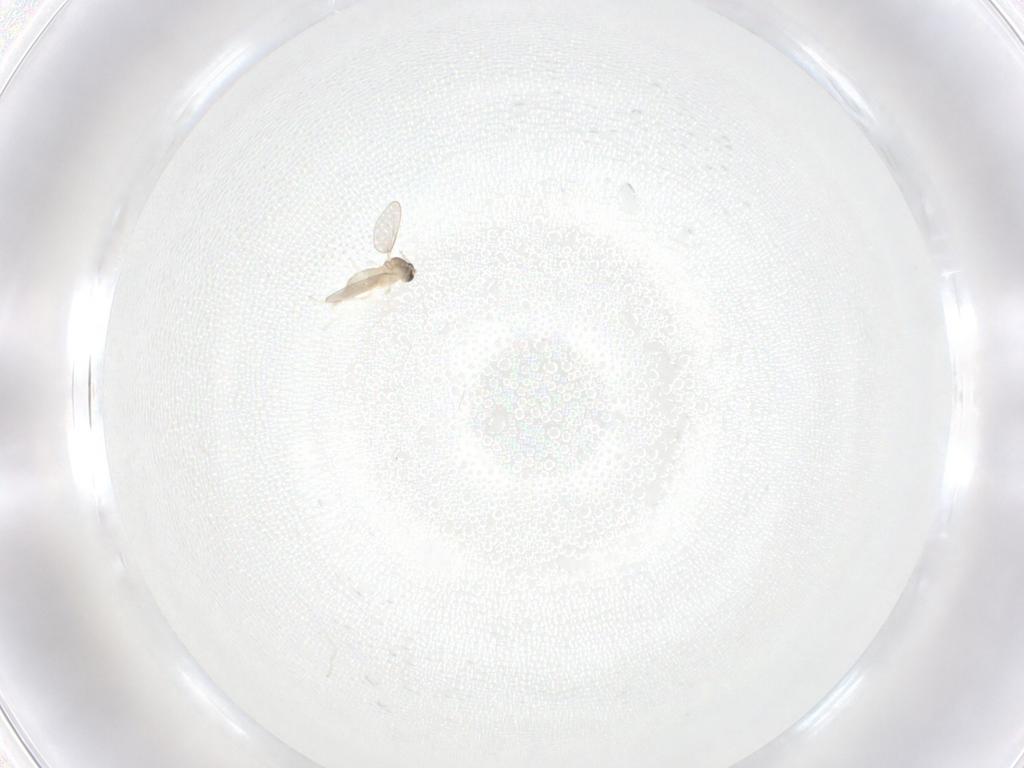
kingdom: Animalia
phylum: Arthropoda
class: Insecta
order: Diptera
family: Cecidomyiidae
